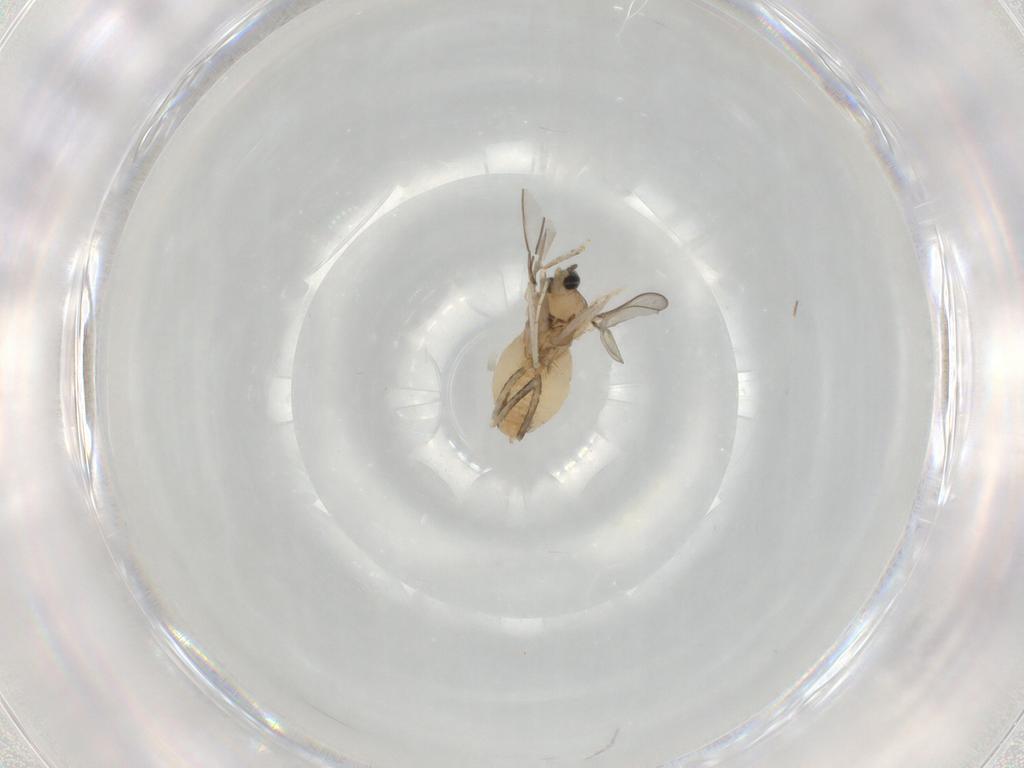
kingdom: Animalia
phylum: Arthropoda
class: Insecta
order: Diptera
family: Cecidomyiidae
